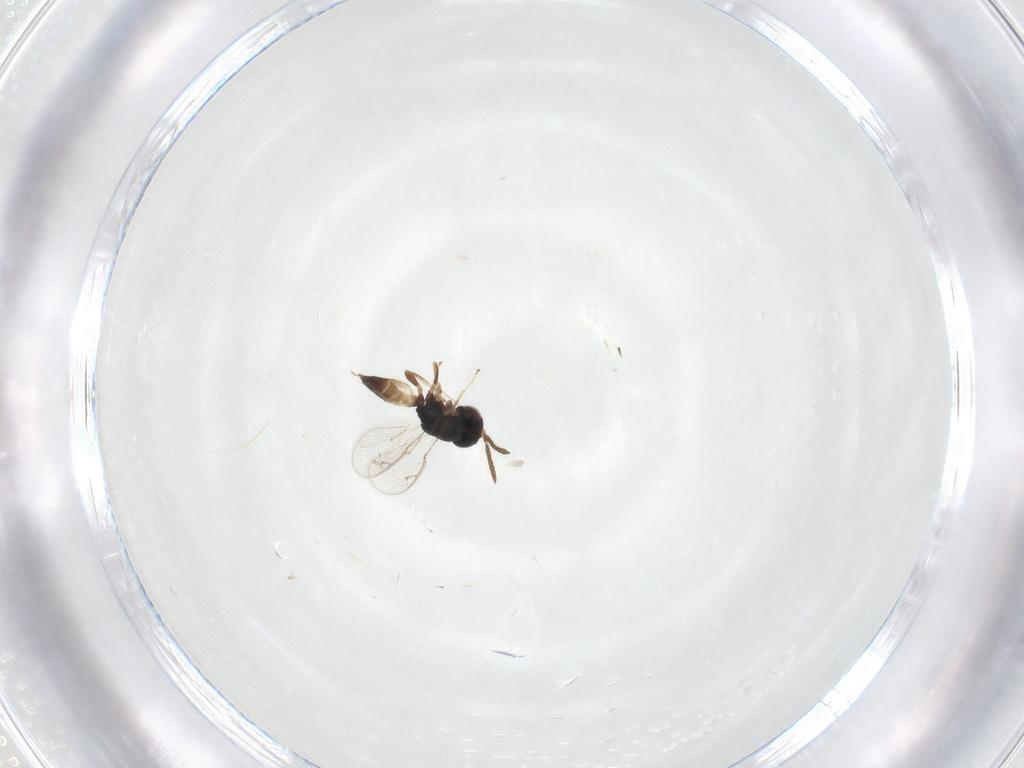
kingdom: Animalia
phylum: Arthropoda
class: Insecta
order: Hymenoptera
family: Pteromalidae
